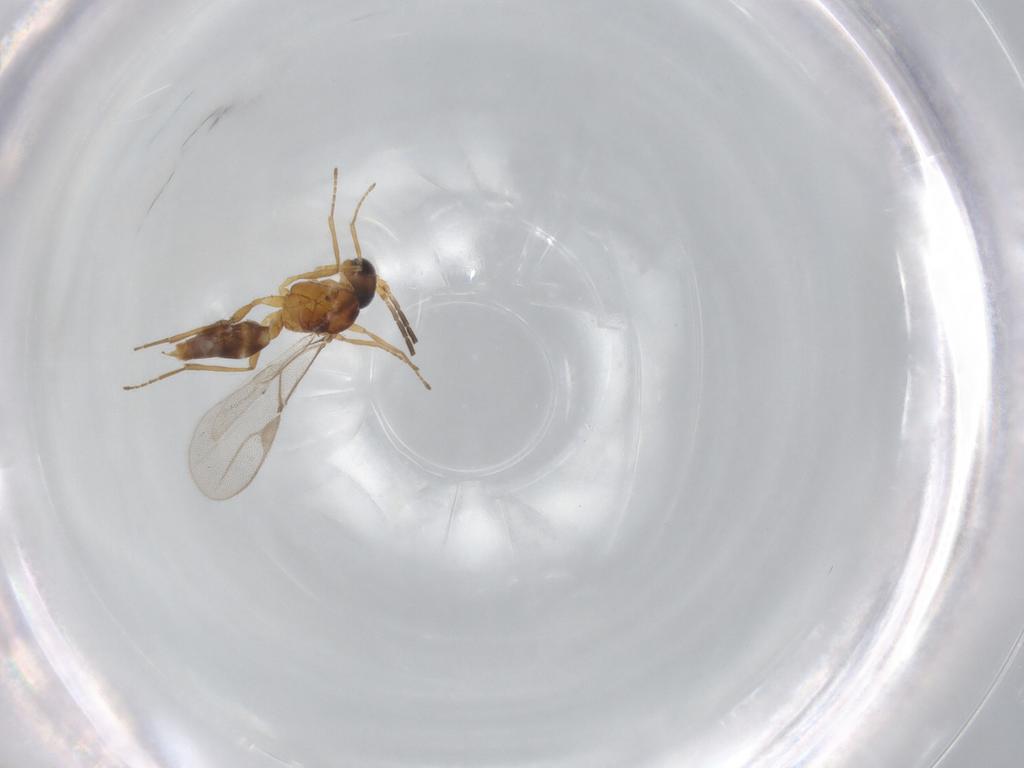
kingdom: Animalia
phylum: Arthropoda
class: Insecta
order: Hymenoptera
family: Braconidae
